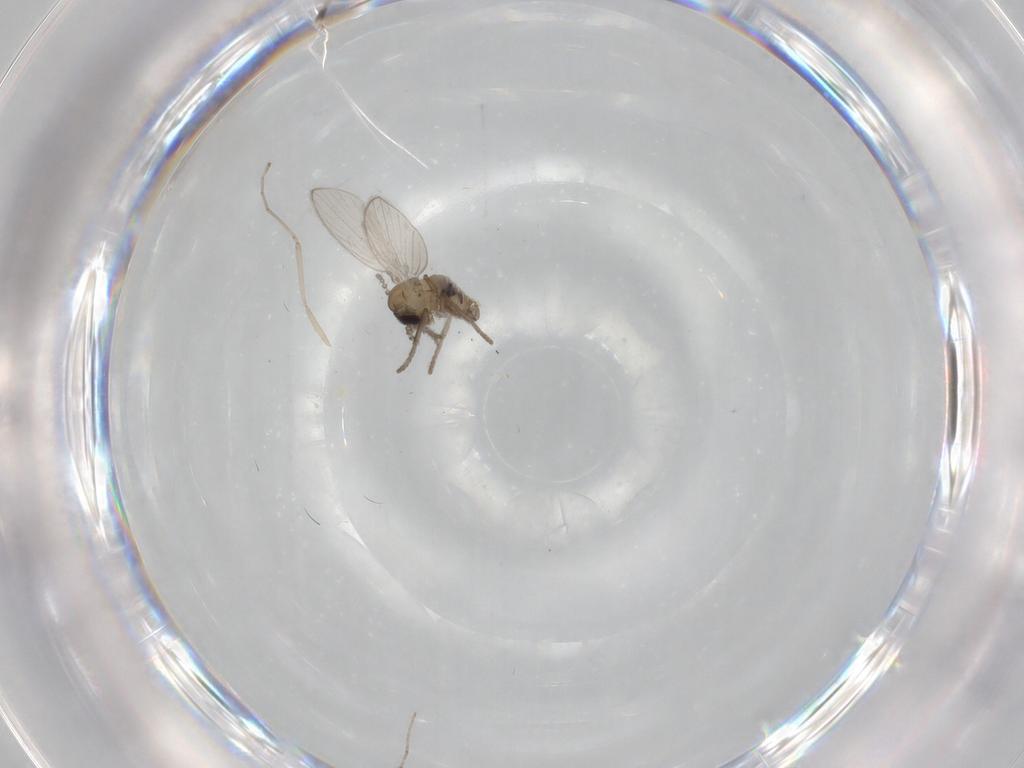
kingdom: Animalia
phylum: Arthropoda
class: Insecta
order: Diptera
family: Psychodidae
